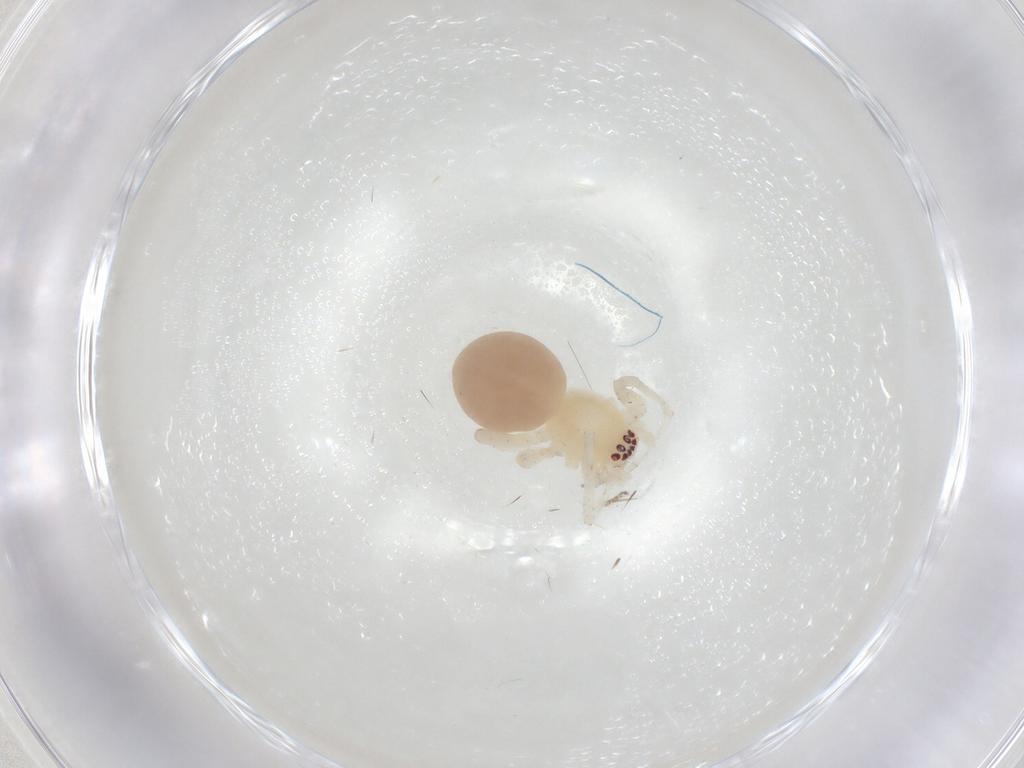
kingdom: Animalia
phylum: Arthropoda
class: Arachnida
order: Araneae
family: Anyphaenidae
